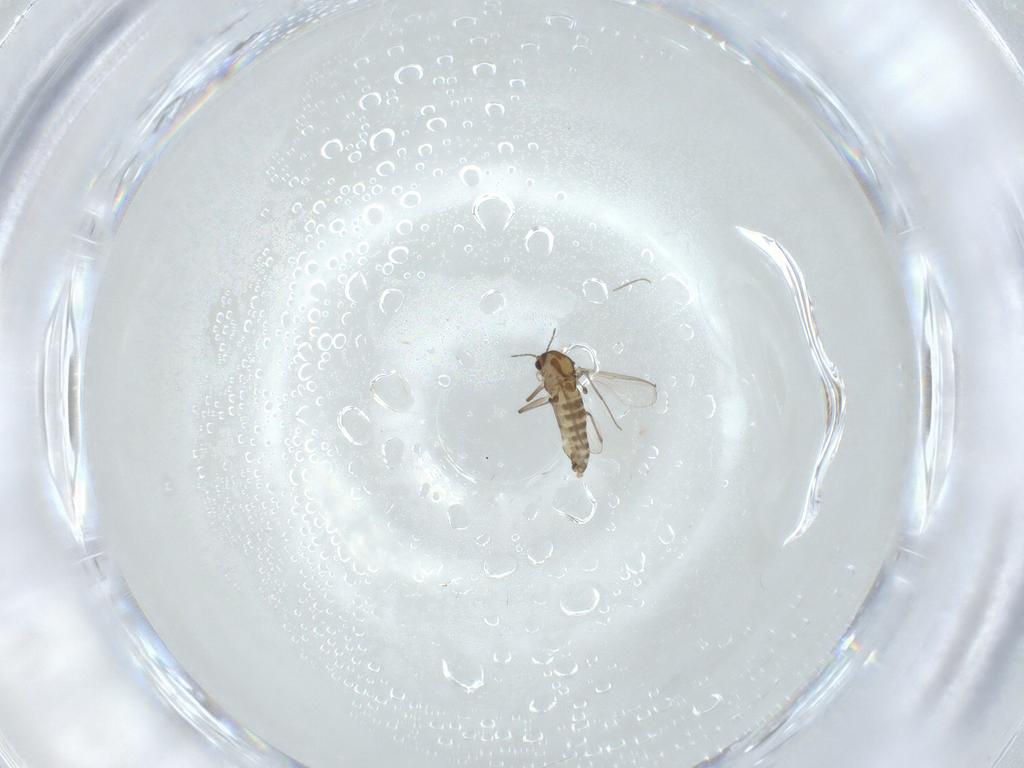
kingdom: Animalia
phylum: Arthropoda
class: Insecta
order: Diptera
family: Chironomidae
